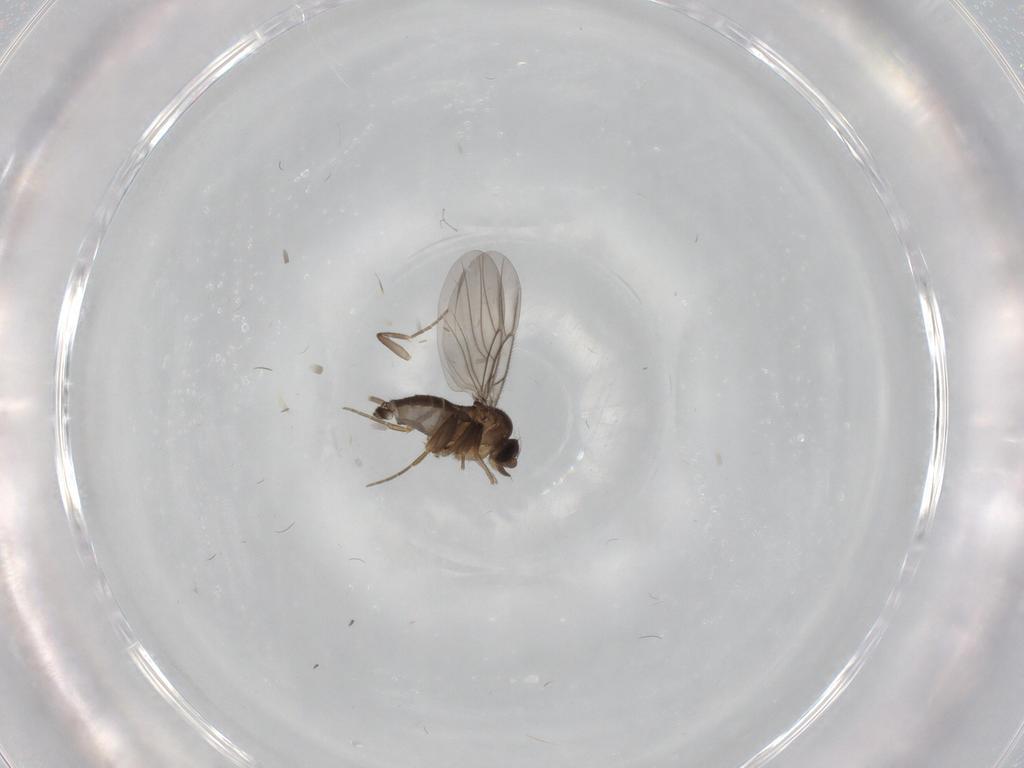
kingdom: Animalia
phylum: Arthropoda
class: Insecta
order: Diptera
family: Phoridae
